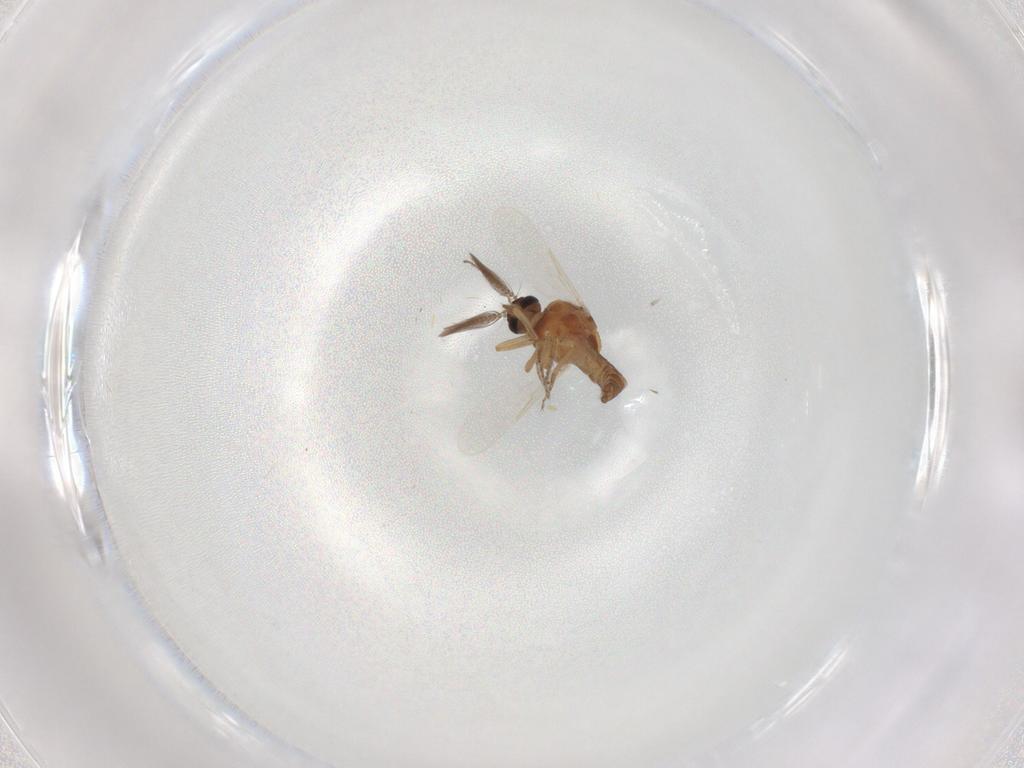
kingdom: Animalia
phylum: Arthropoda
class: Insecta
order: Diptera
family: Ceratopogonidae
